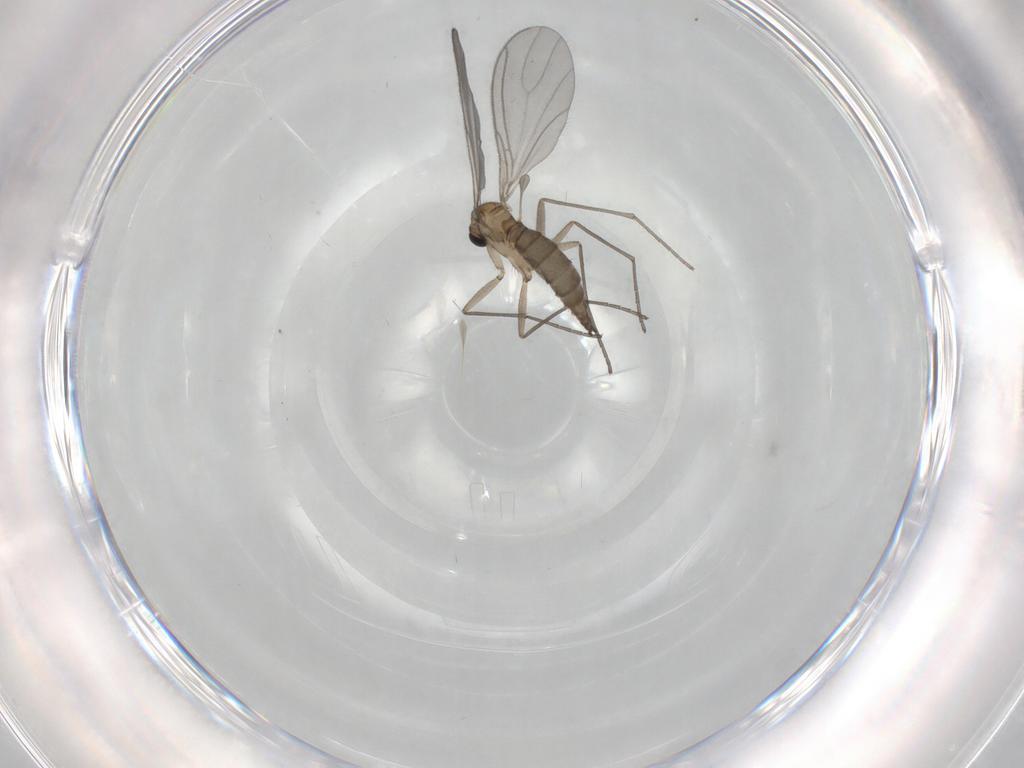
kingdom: Animalia
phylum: Arthropoda
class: Insecta
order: Diptera
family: Sciaridae
